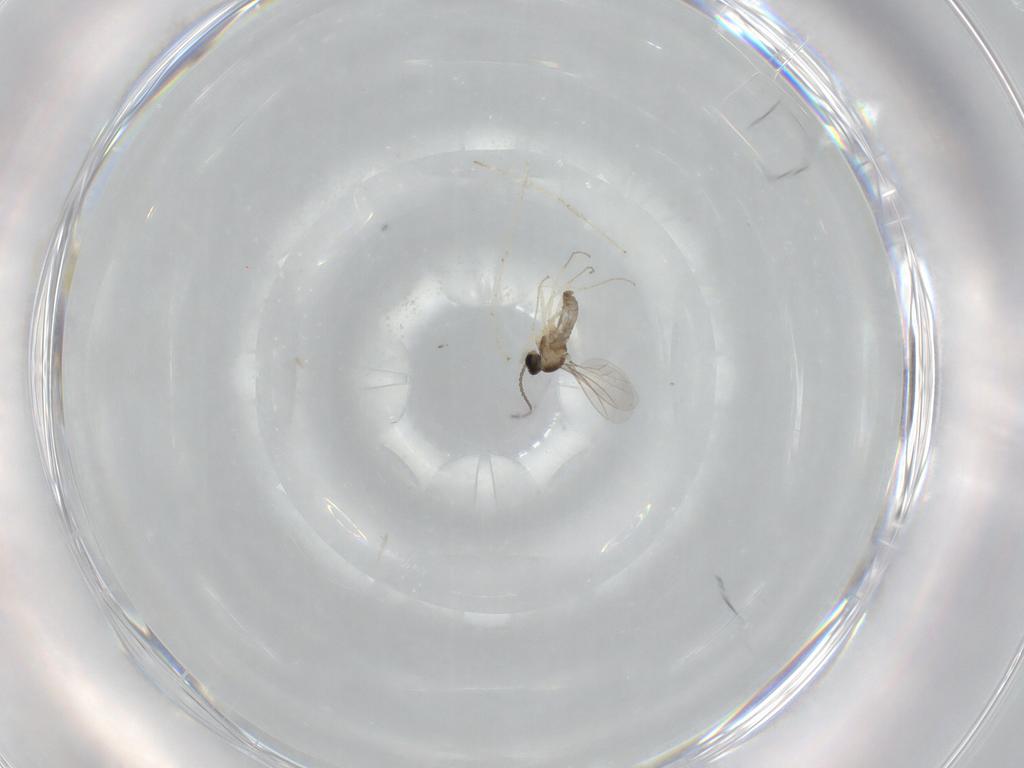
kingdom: Animalia
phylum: Arthropoda
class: Insecta
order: Diptera
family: Cecidomyiidae
